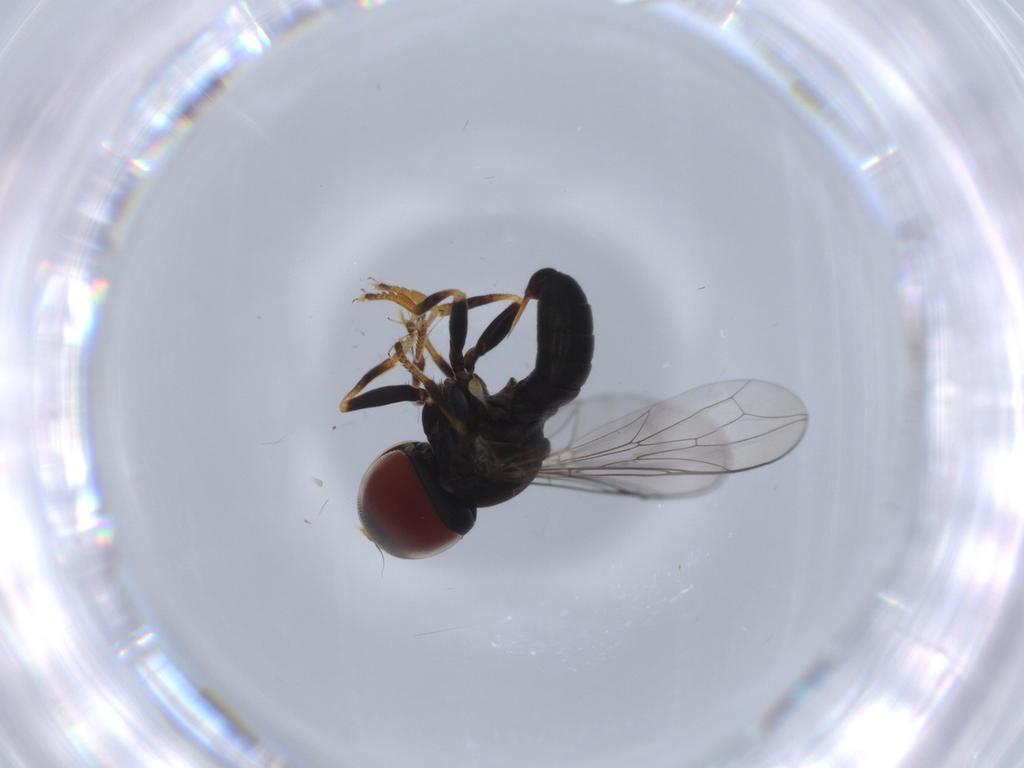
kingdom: Animalia
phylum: Arthropoda
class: Insecta
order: Diptera
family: Pipunculidae
